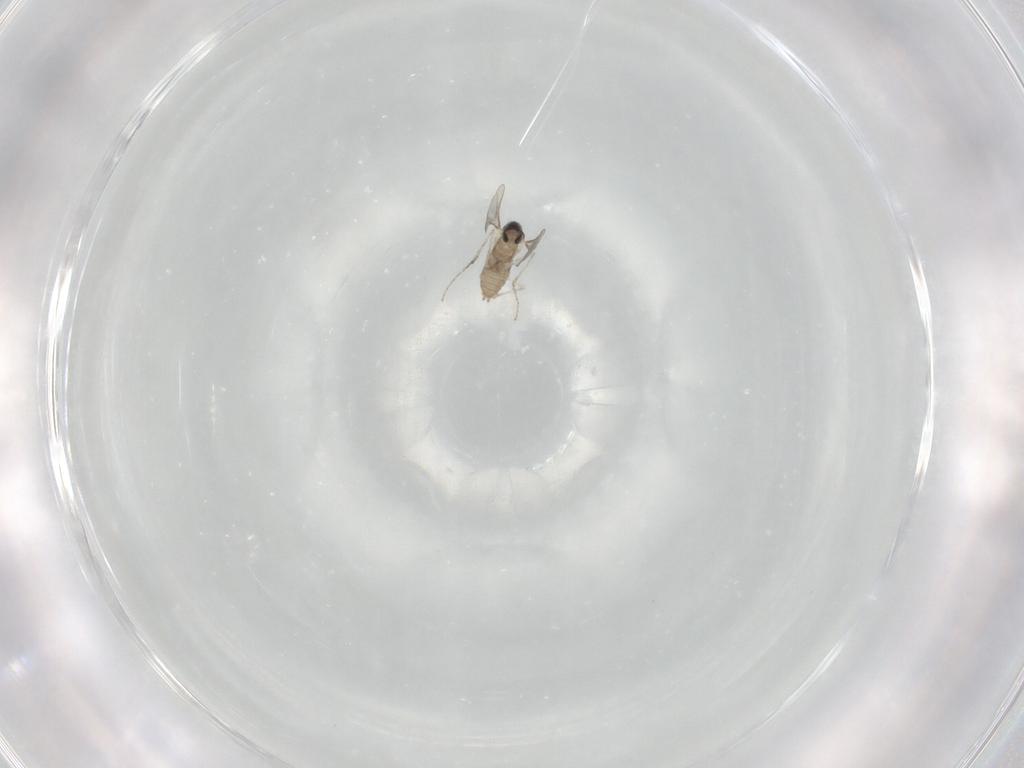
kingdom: Animalia
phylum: Arthropoda
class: Insecta
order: Diptera
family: Cecidomyiidae
